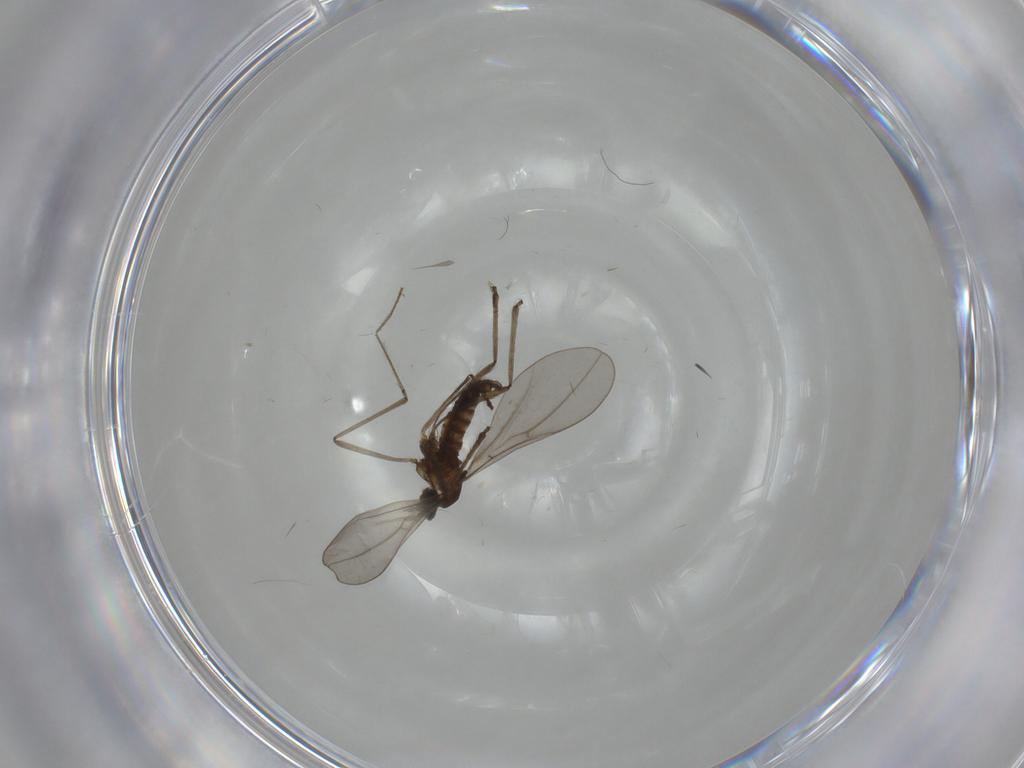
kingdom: Animalia
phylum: Arthropoda
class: Insecta
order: Diptera
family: Cecidomyiidae
